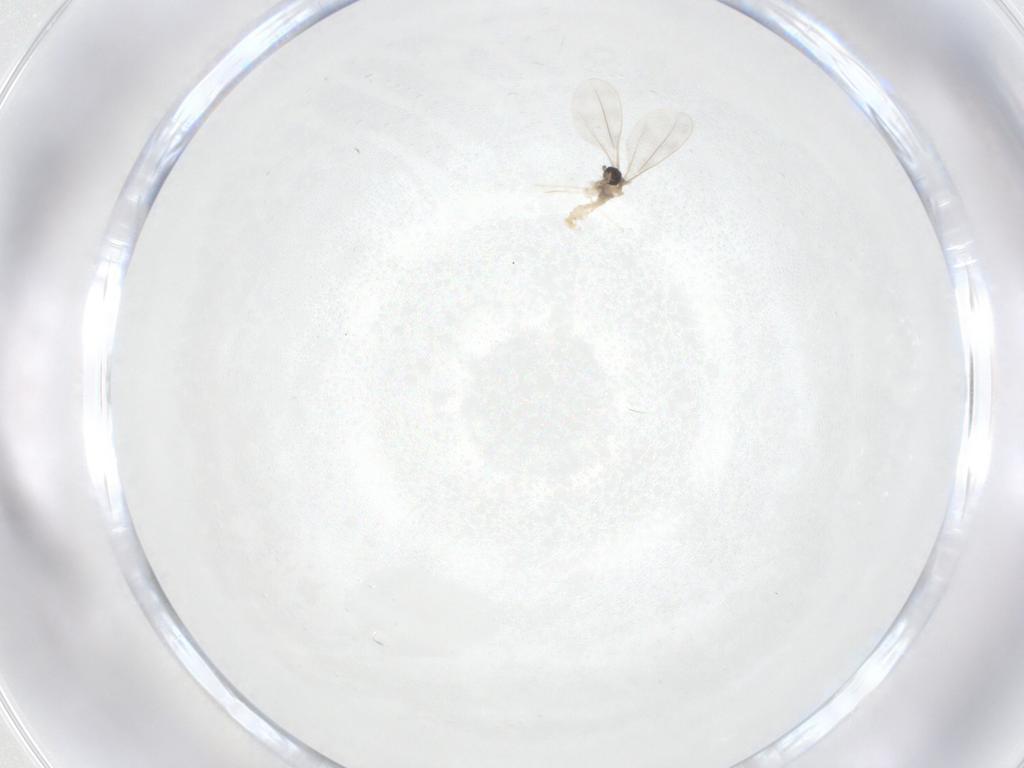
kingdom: Animalia
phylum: Arthropoda
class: Insecta
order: Diptera
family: Cecidomyiidae
